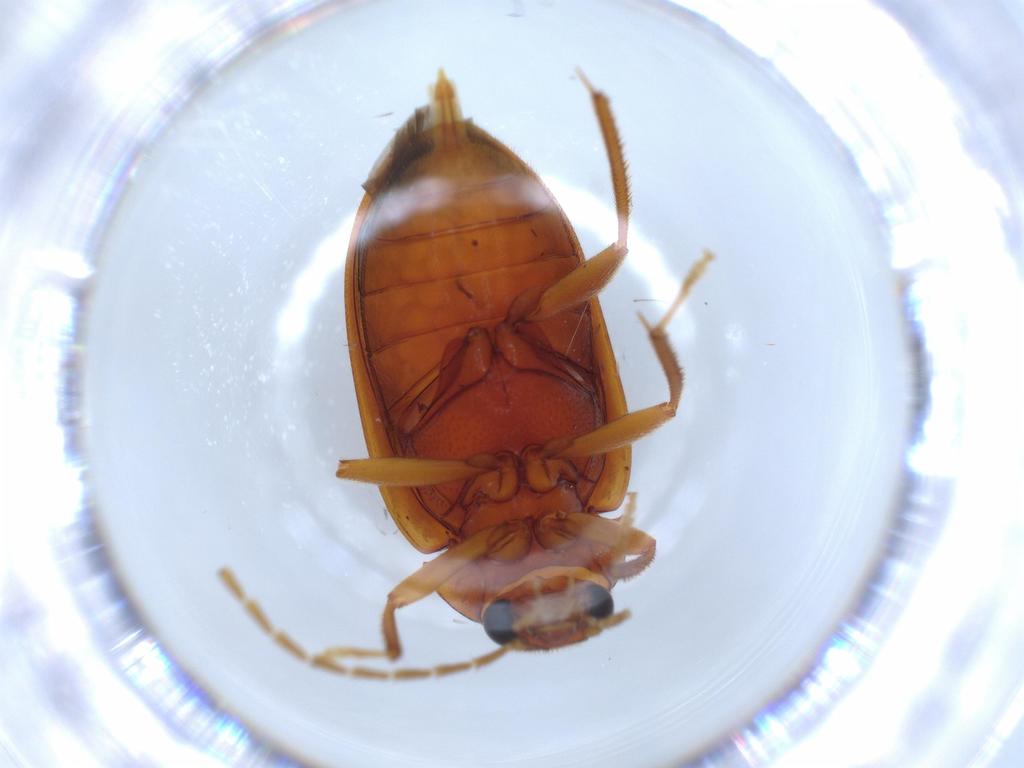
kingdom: Animalia
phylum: Arthropoda
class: Insecta
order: Coleoptera
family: Ptilodactylidae
